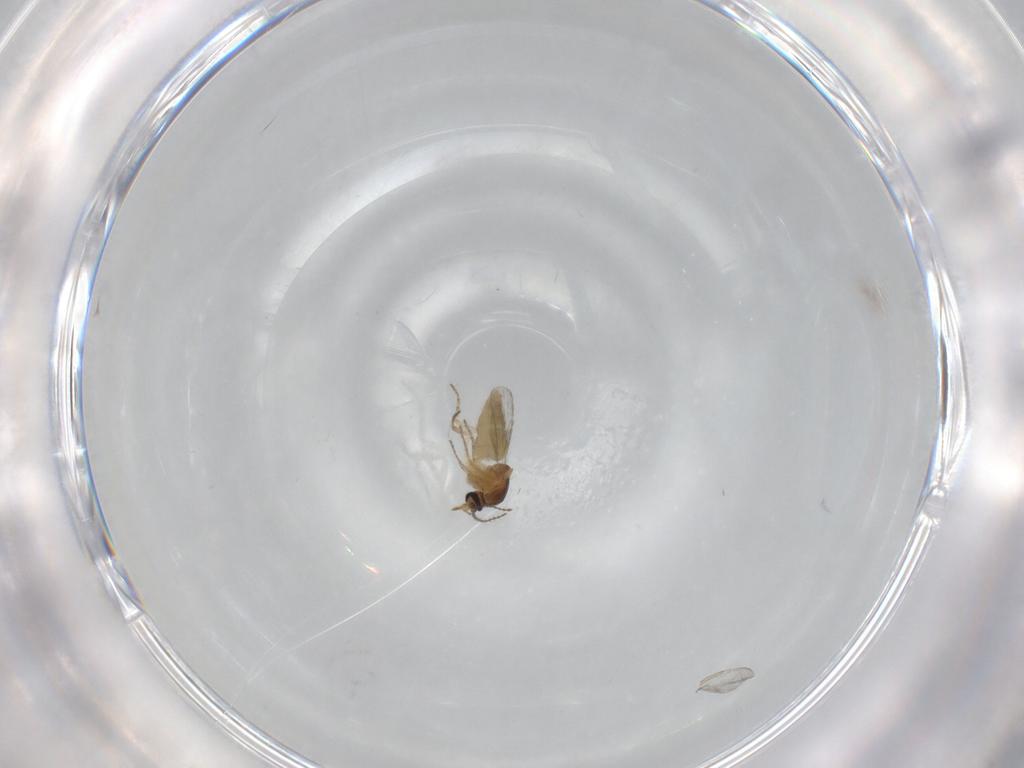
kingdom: Animalia
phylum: Arthropoda
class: Insecta
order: Diptera
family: Ceratopogonidae
